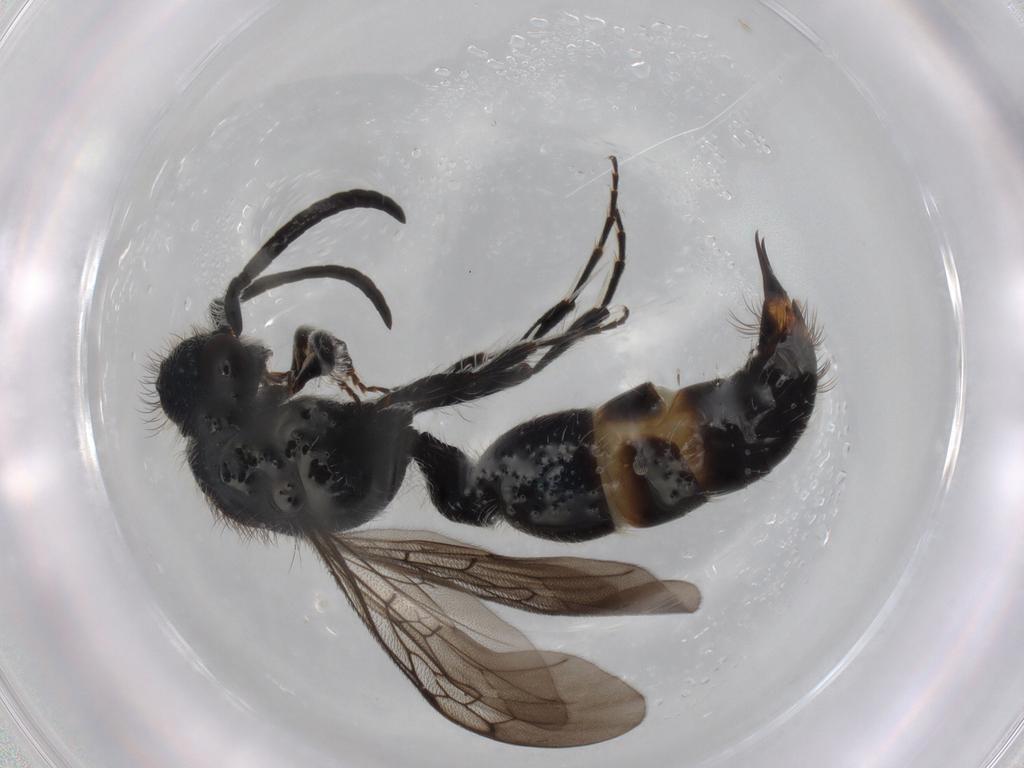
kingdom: Animalia
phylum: Arthropoda
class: Insecta
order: Hymenoptera
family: Mutillidae
